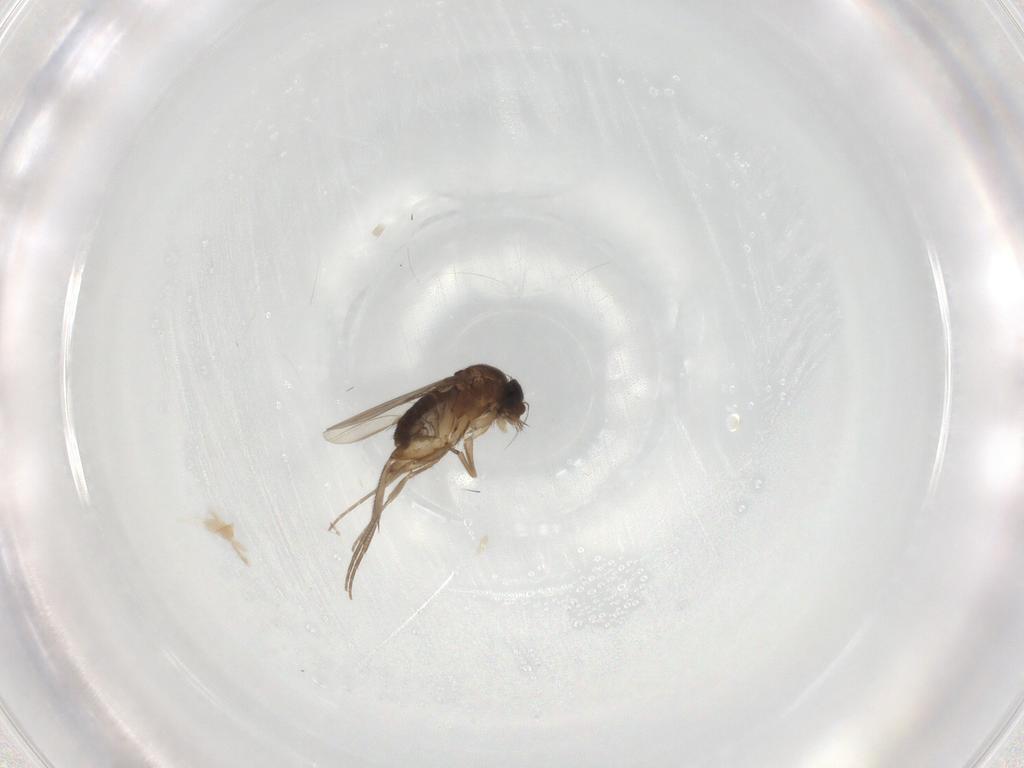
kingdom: Animalia
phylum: Arthropoda
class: Insecta
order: Diptera
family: Phoridae
